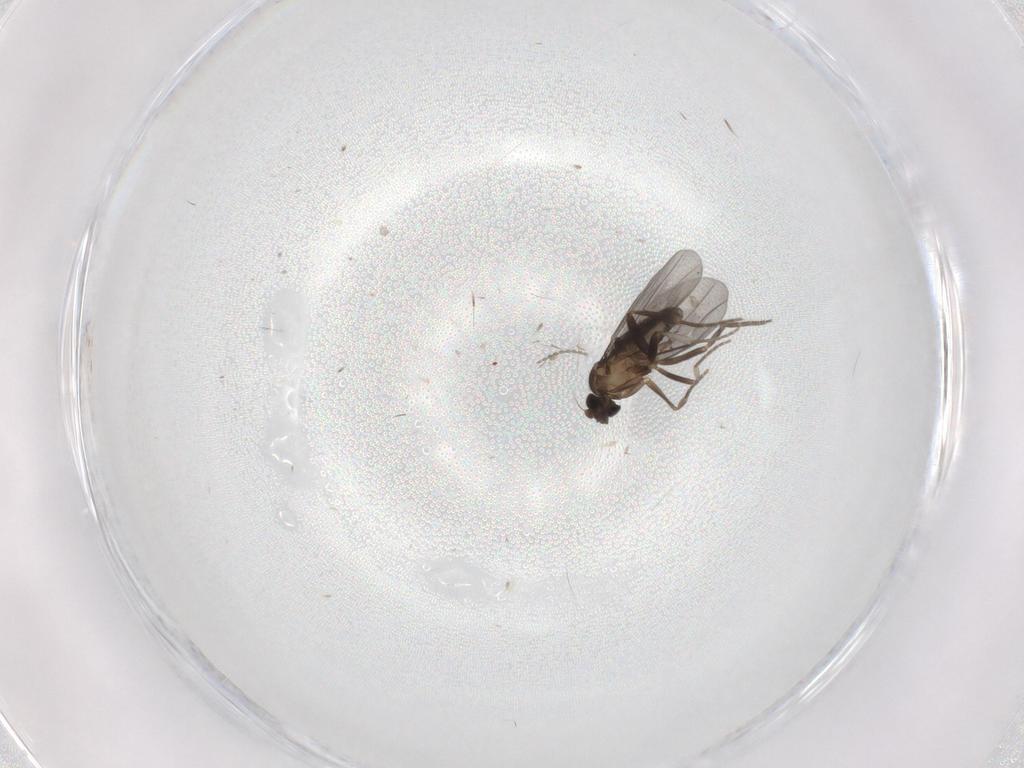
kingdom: Animalia
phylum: Arthropoda
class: Insecta
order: Diptera
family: Cecidomyiidae
